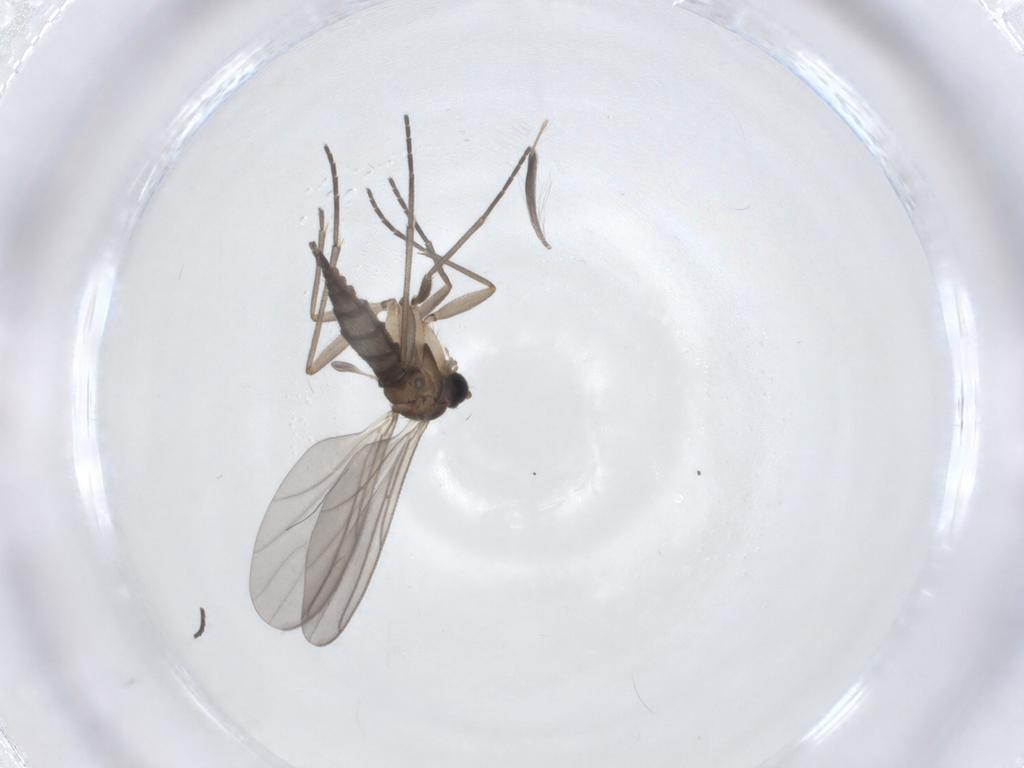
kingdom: Animalia
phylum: Arthropoda
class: Insecta
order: Diptera
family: Sciaridae
